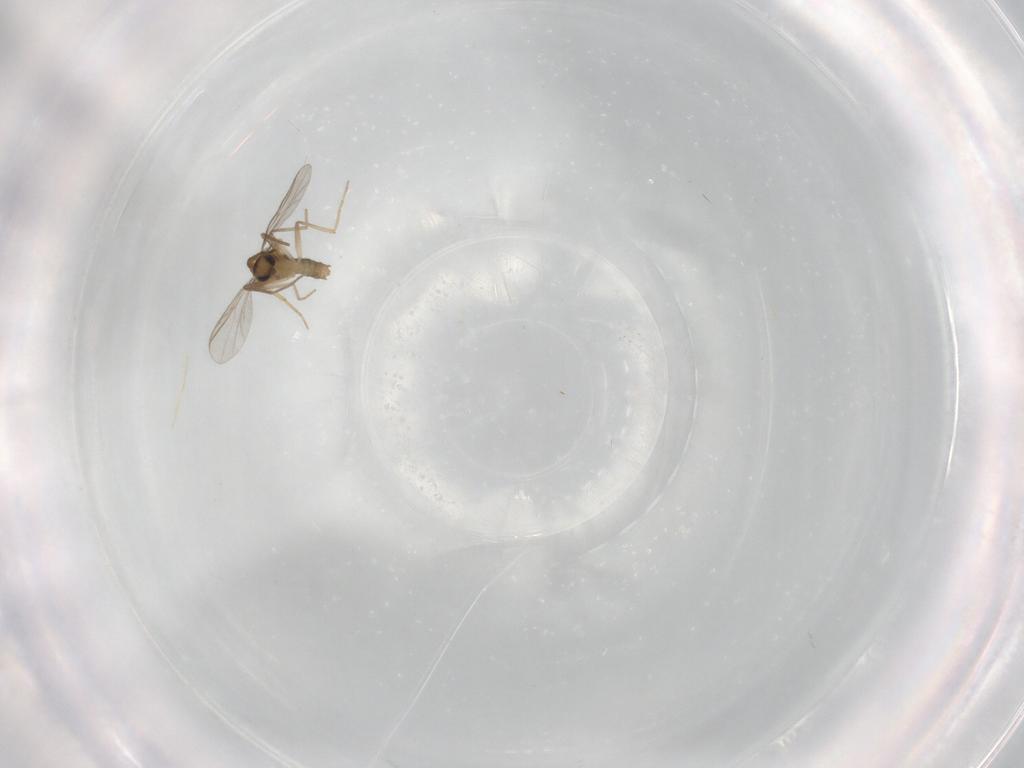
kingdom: Animalia
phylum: Arthropoda
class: Insecta
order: Diptera
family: Chironomidae
